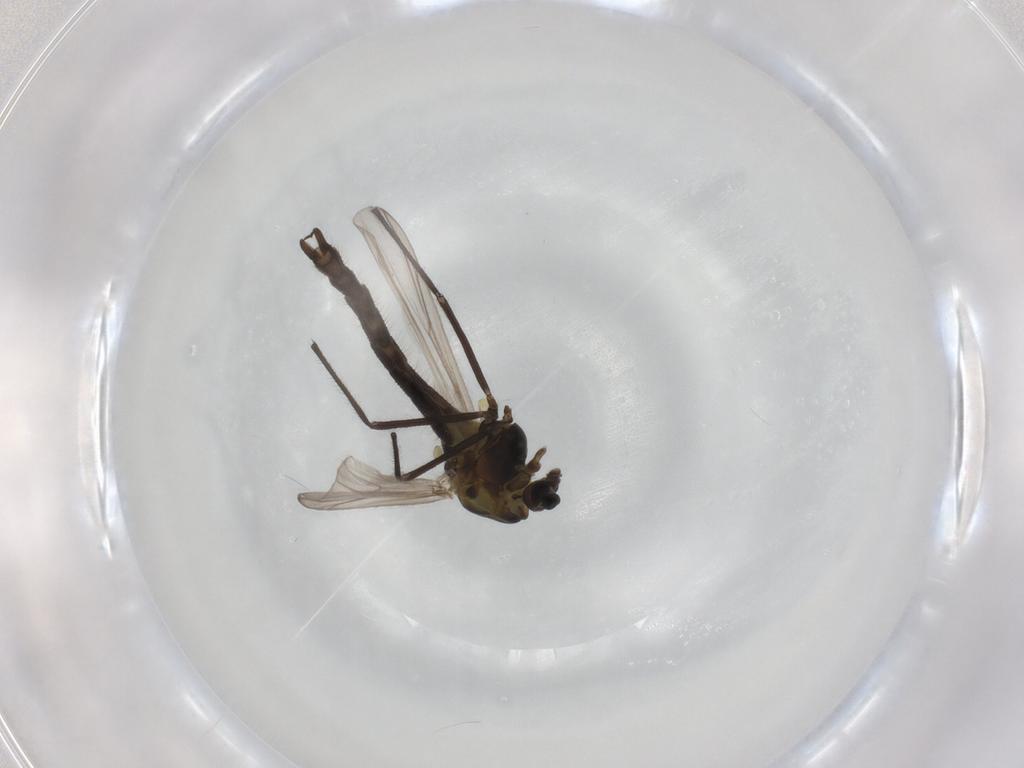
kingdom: Animalia
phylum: Arthropoda
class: Insecta
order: Diptera
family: Chironomidae
